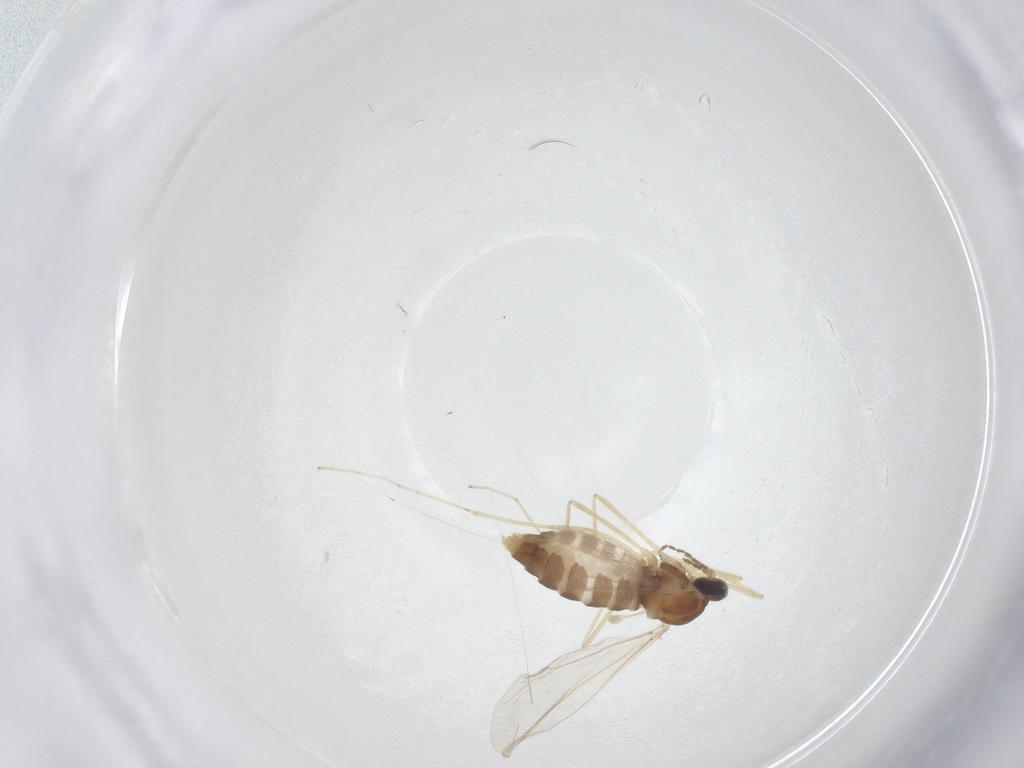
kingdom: Animalia
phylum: Arthropoda
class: Insecta
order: Diptera
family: Cecidomyiidae
